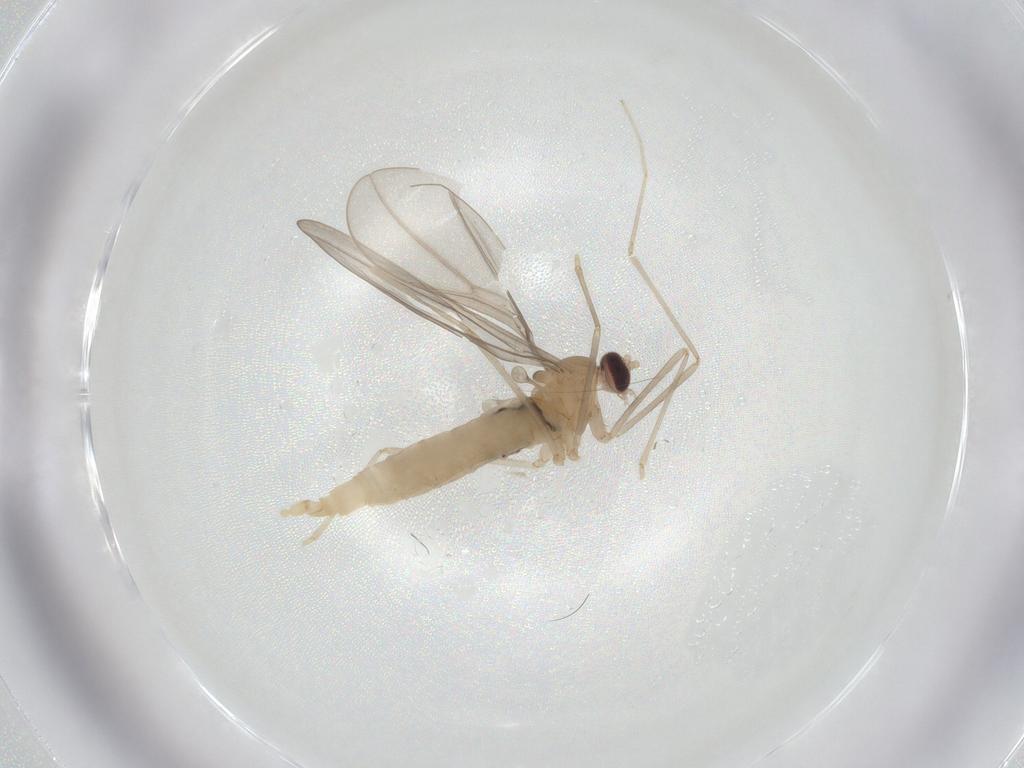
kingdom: Animalia
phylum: Arthropoda
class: Insecta
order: Diptera
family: Cecidomyiidae
